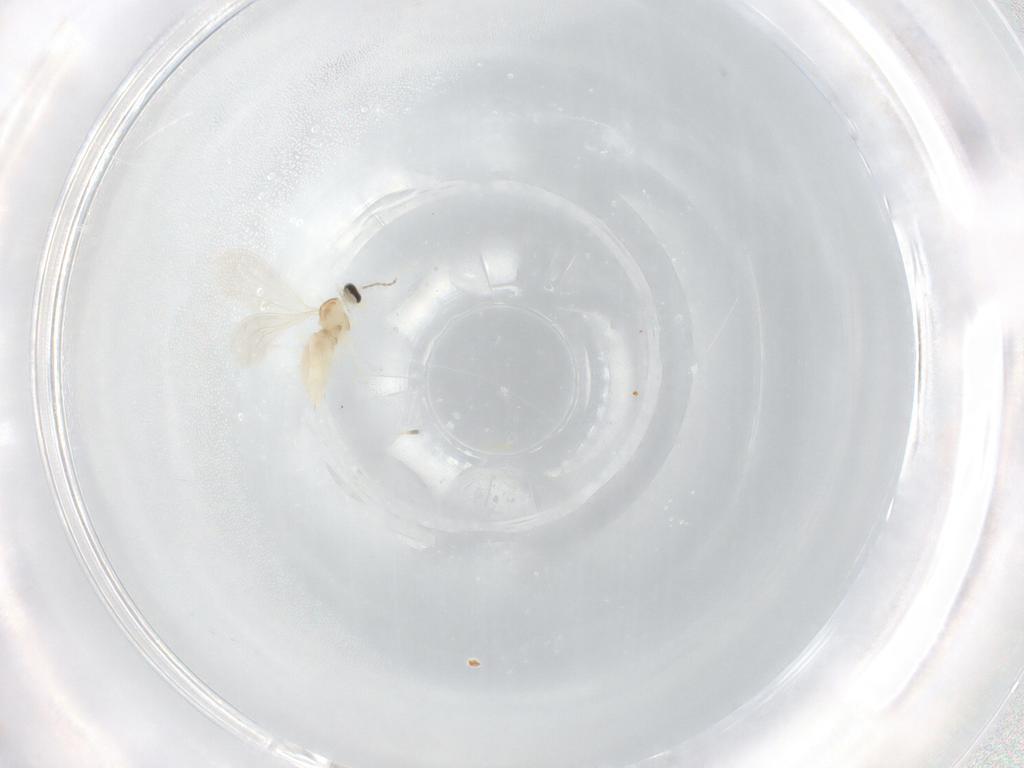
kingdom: Animalia
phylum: Arthropoda
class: Insecta
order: Diptera
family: Cecidomyiidae
